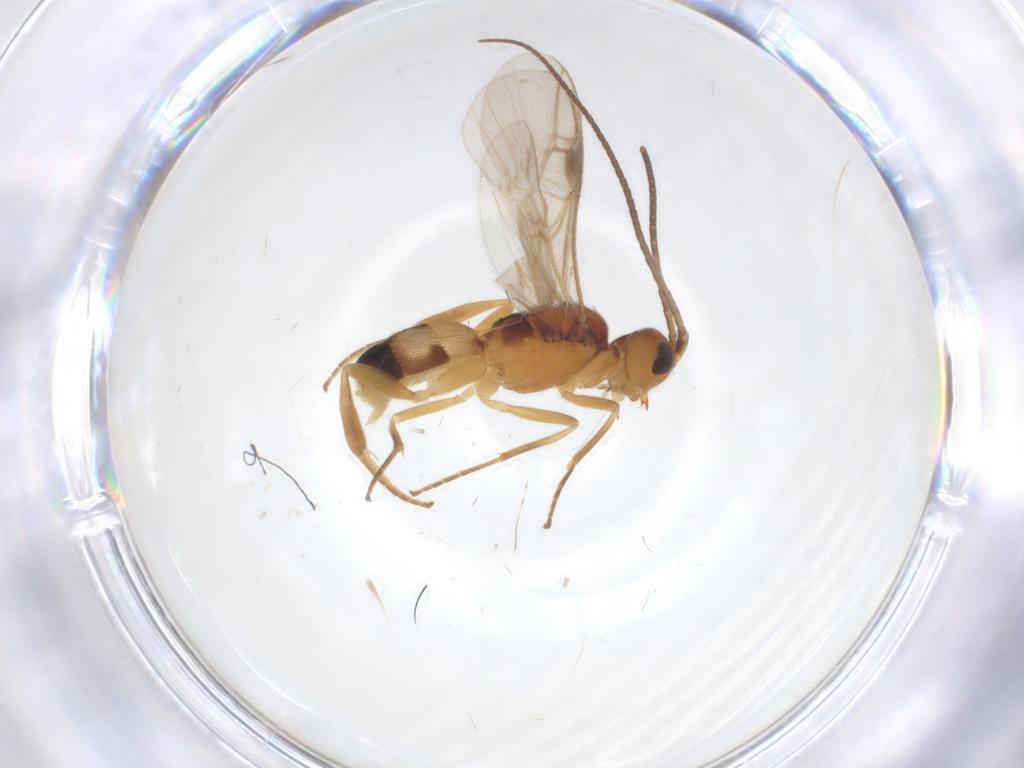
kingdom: Animalia
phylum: Arthropoda
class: Insecta
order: Hymenoptera
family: Braconidae
